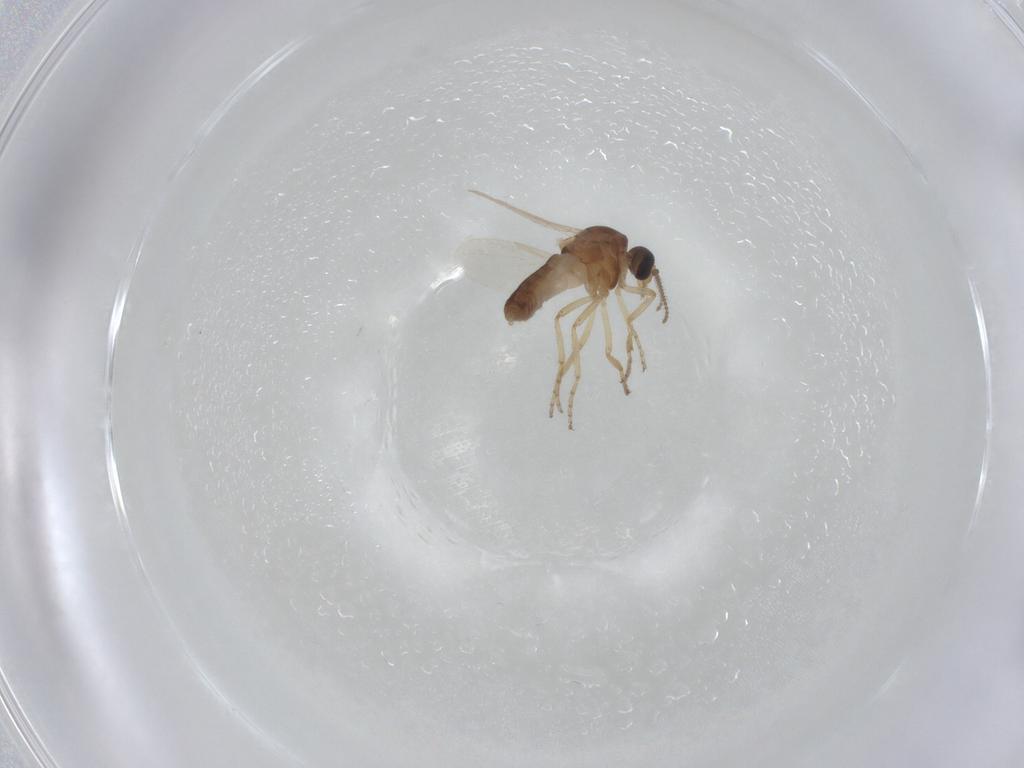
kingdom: Animalia
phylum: Arthropoda
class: Insecta
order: Diptera
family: Ceratopogonidae
